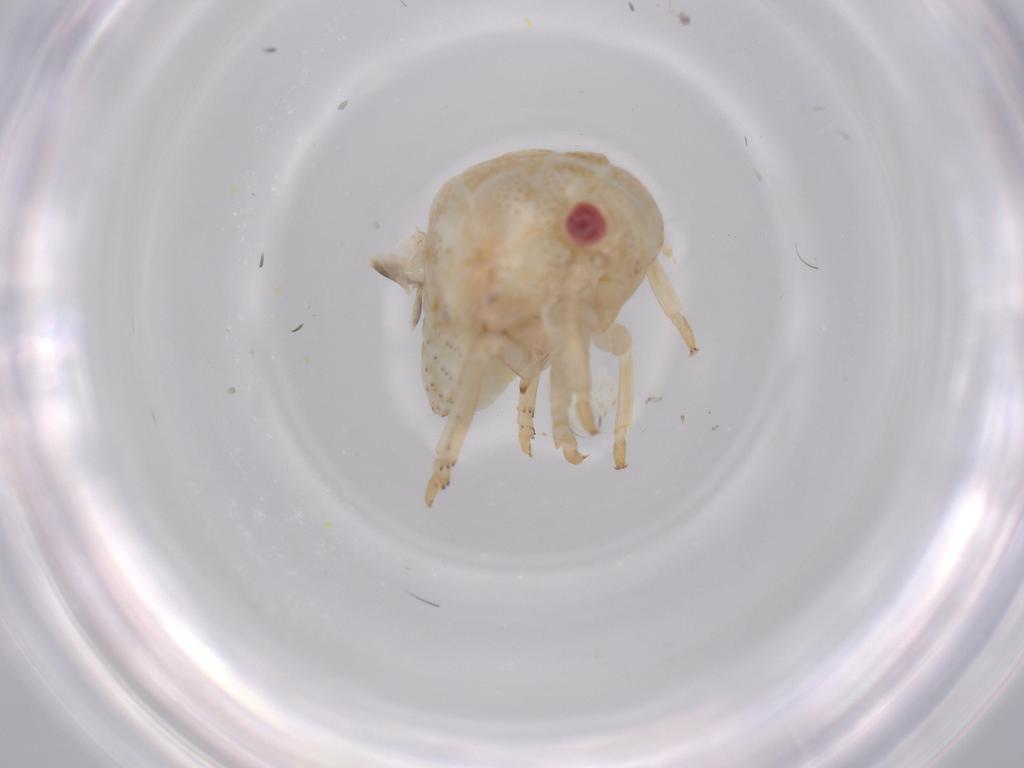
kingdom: Animalia
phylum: Arthropoda
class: Insecta
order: Hemiptera
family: Acanaloniidae
